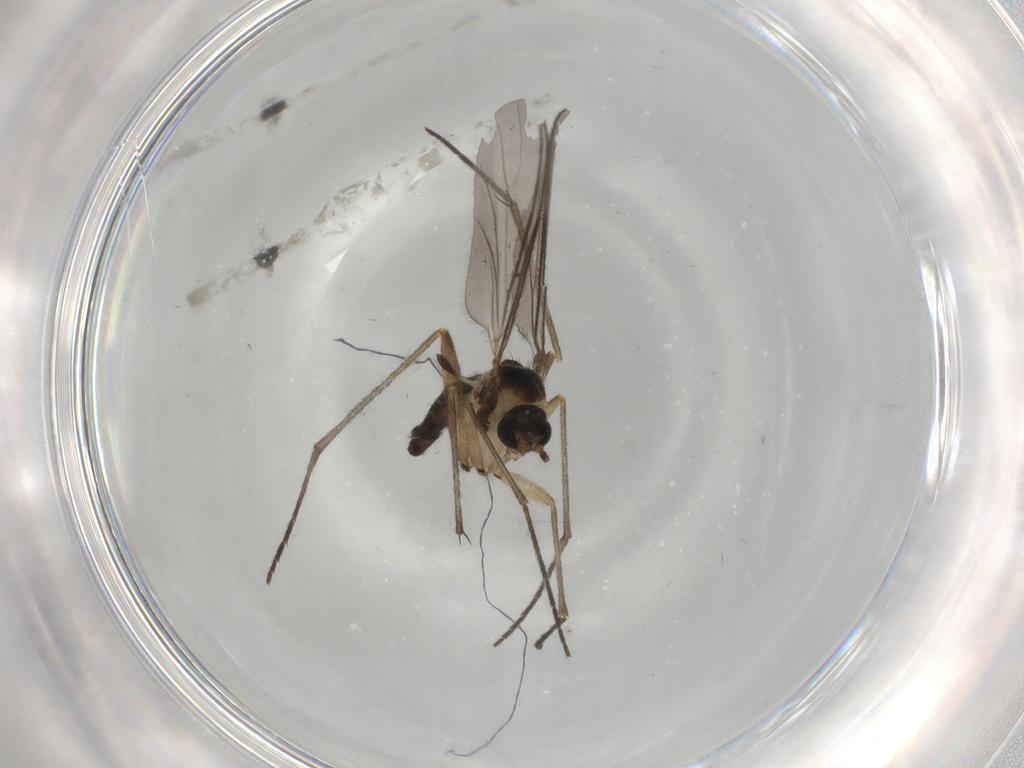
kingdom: Animalia
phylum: Arthropoda
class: Insecta
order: Diptera
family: Sciaridae
